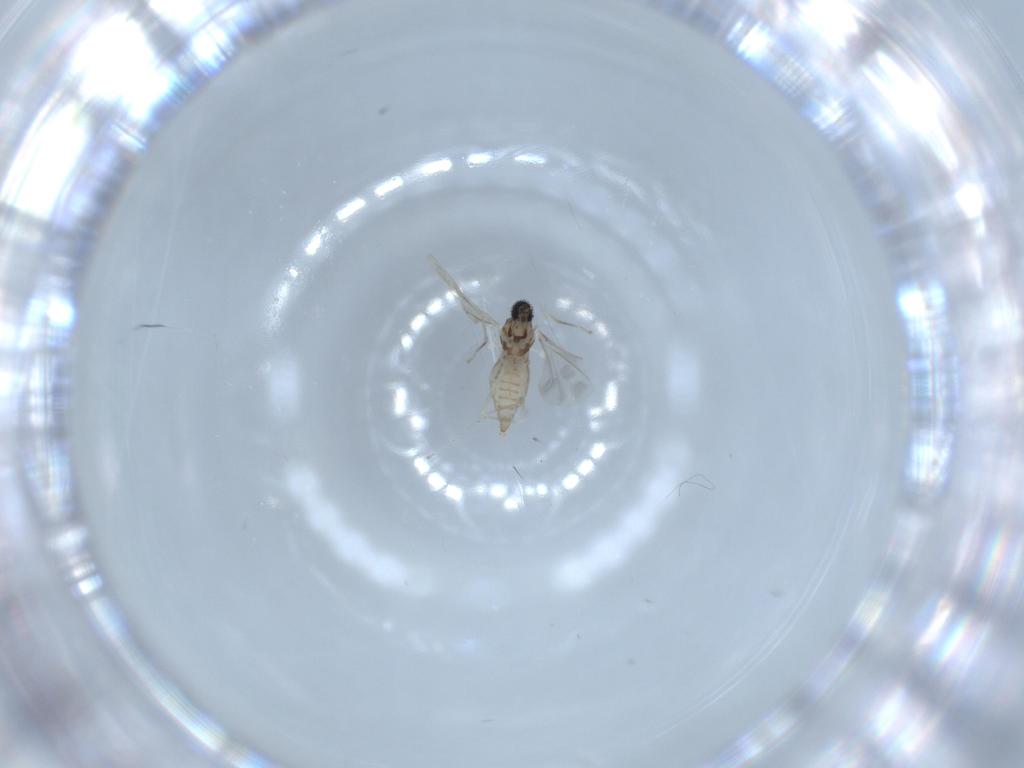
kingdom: Animalia
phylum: Arthropoda
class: Insecta
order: Diptera
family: Cecidomyiidae
